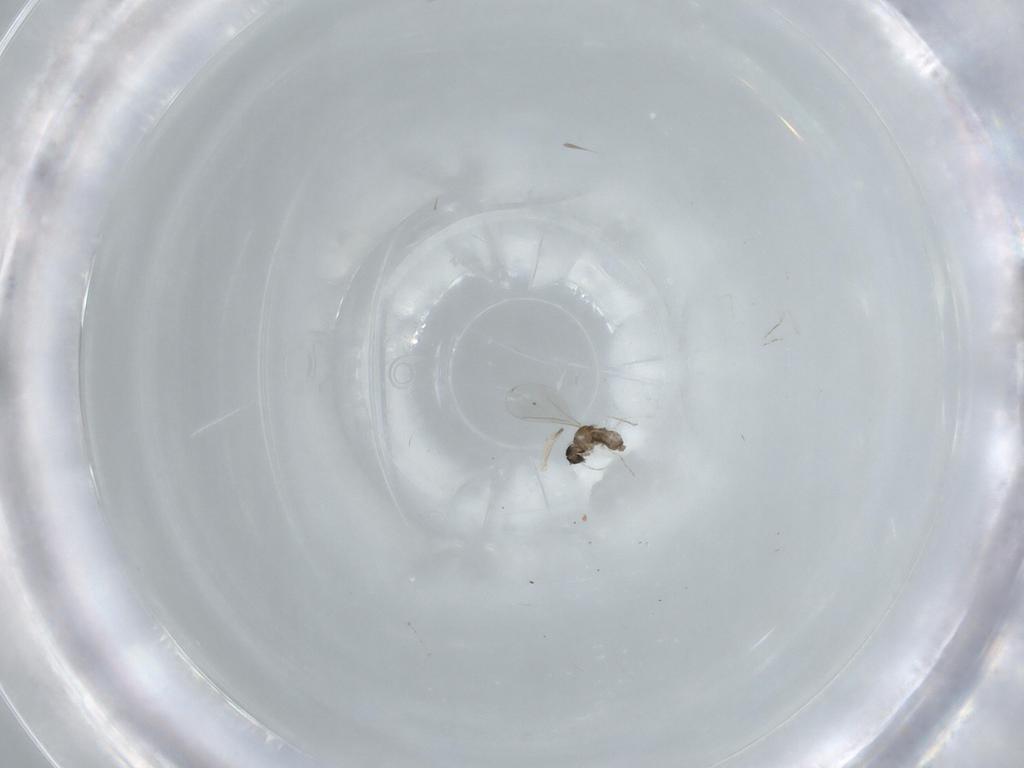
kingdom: Animalia
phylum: Arthropoda
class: Insecta
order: Diptera
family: Cecidomyiidae
